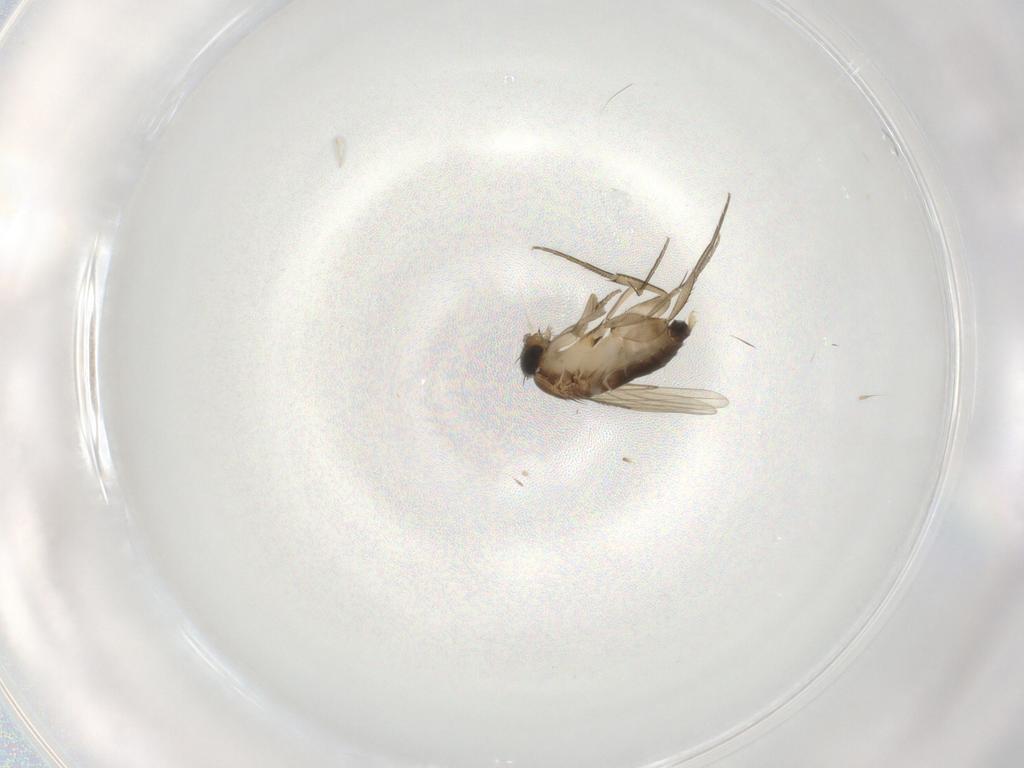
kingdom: Animalia
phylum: Arthropoda
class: Insecta
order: Diptera
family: Phoridae
